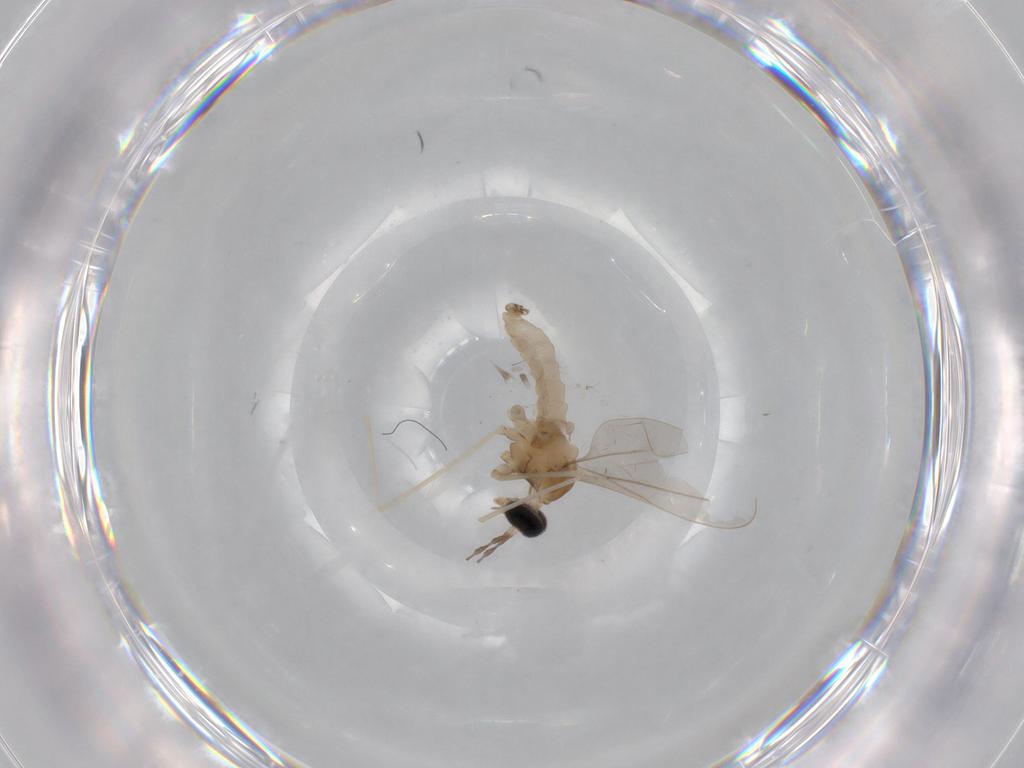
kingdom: Animalia
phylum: Arthropoda
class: Insecta
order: Diptera
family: Cecidomyiidae
